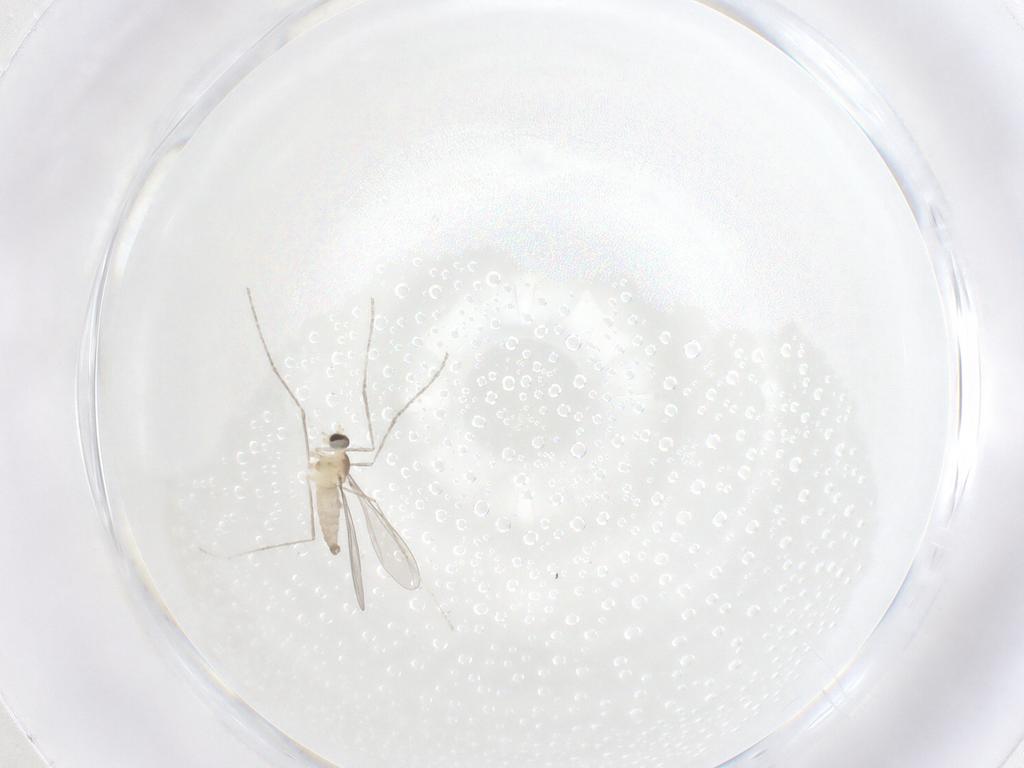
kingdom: Animalia
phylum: Arthropoda
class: Insecta
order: Diptera
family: Cecidomyiidae
